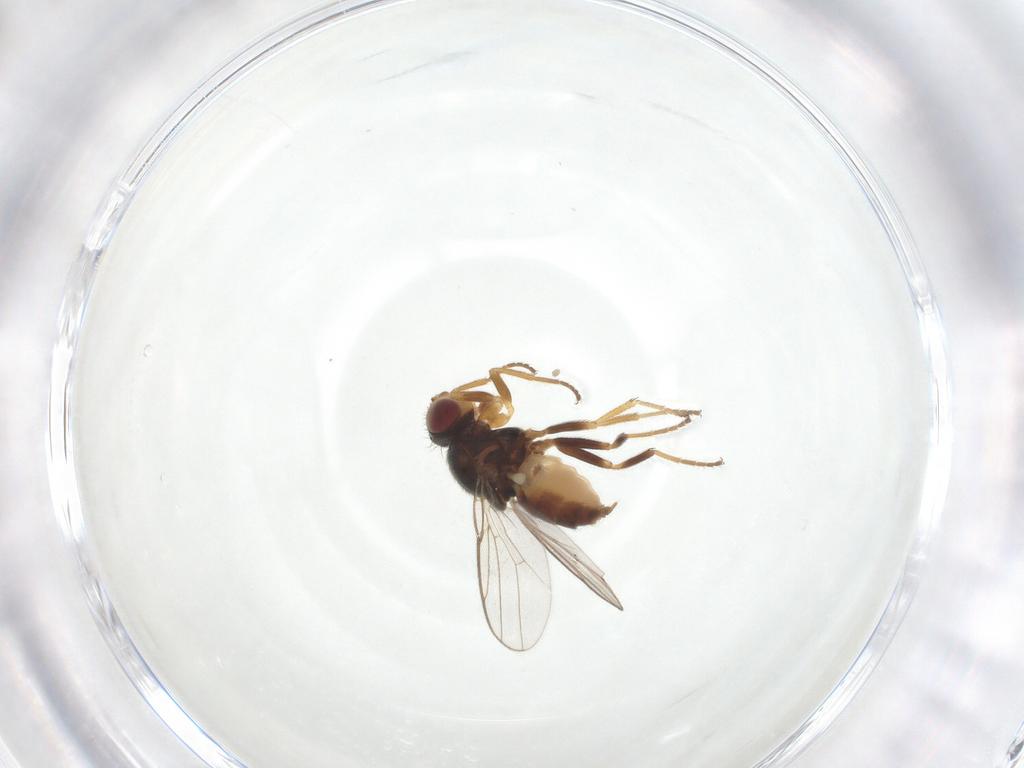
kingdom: Animalia
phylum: Arthropoda
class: Insecta
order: Diptera
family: Chloropidae
